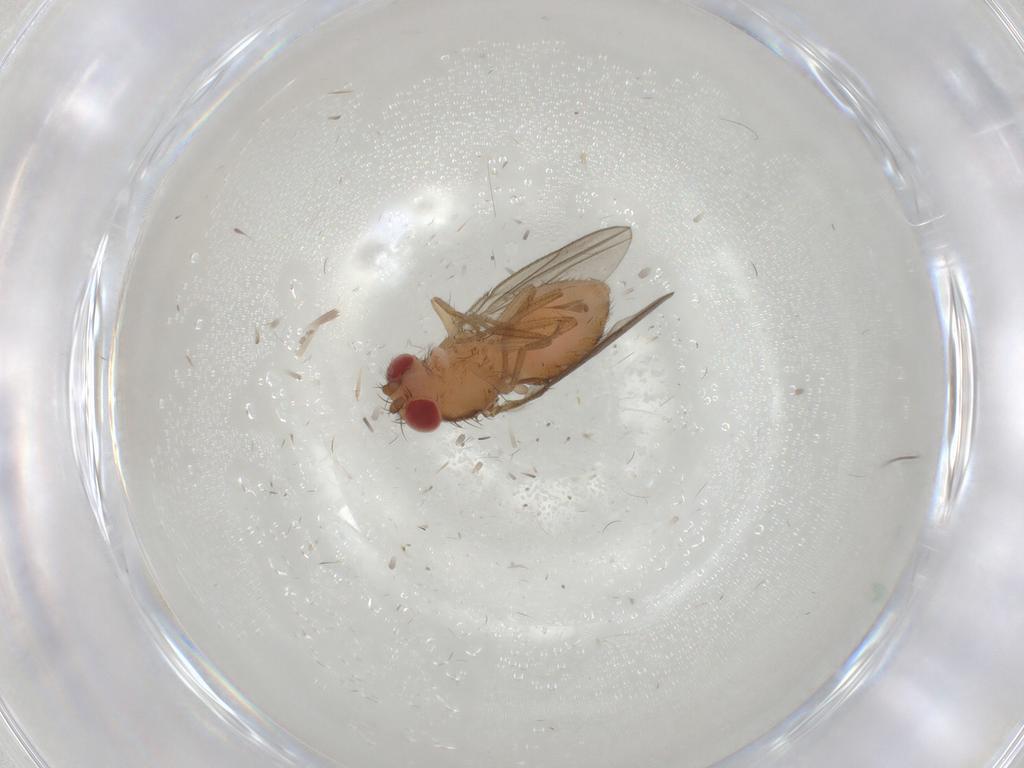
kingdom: Animalia
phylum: Arthropoda
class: Insecta
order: Diptera
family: Drosophilidae
